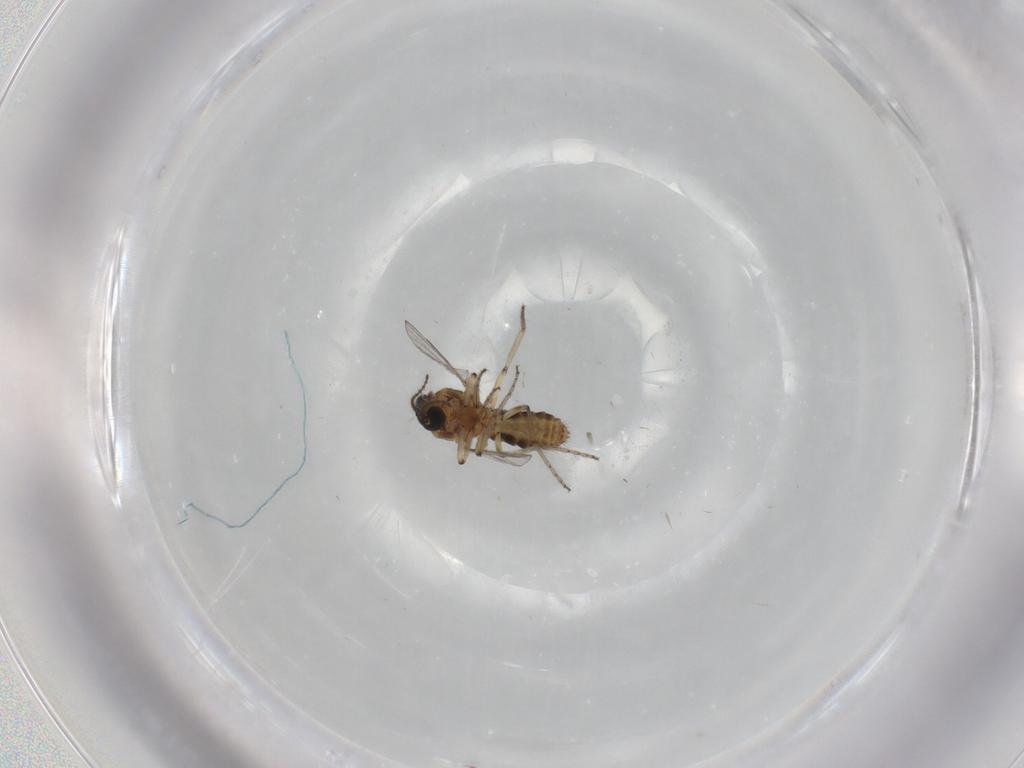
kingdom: Animalia
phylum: Arthropoda
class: Insecta
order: Diptera
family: Ceratopogonidae
